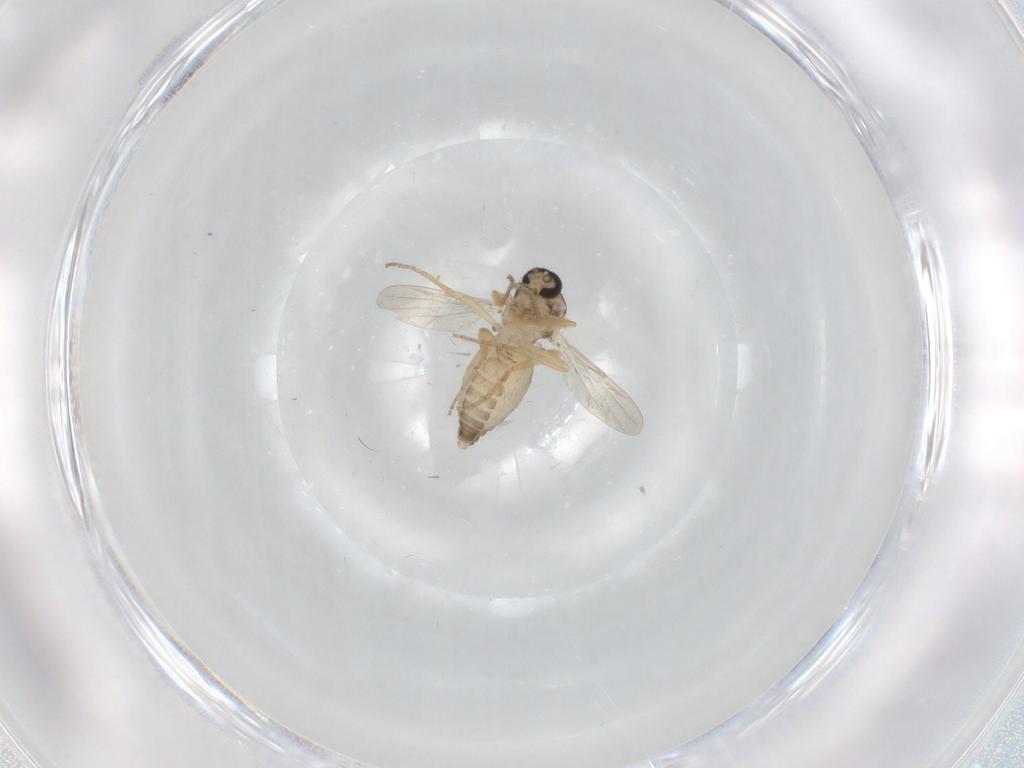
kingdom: Animalia
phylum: Arthropoda
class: Insecta
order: Diptera
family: Ceratopogonidae
